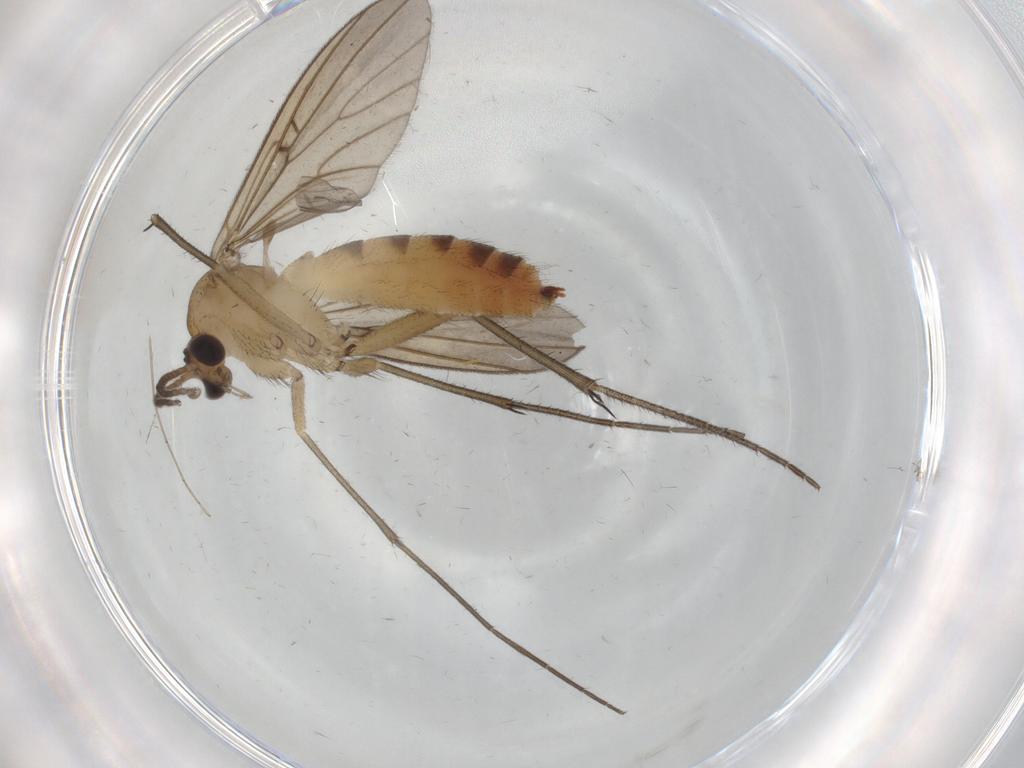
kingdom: Animalia
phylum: Arthropoda
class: Insecta
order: Diptera
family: Mycetophilidae
